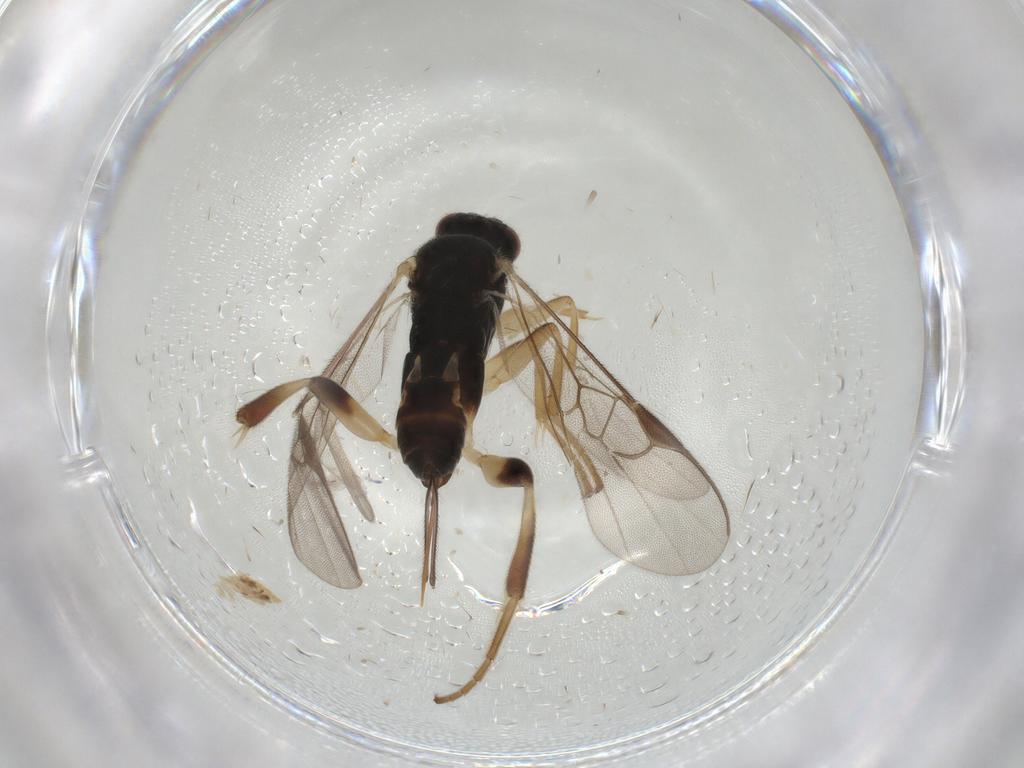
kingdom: Animalia
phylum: Arthropoda
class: Insecta
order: Hymenoptera
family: Braconidae
